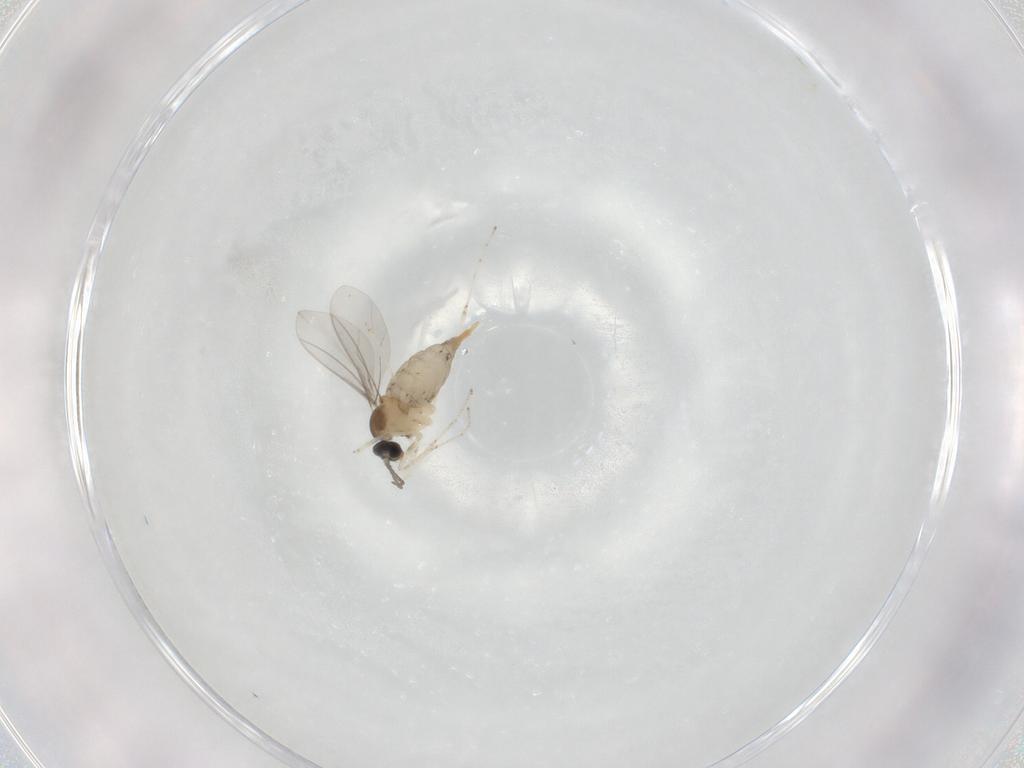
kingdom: Animalia
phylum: Arthropoda
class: Insecta
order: Diptera
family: Cecidomyiidae
